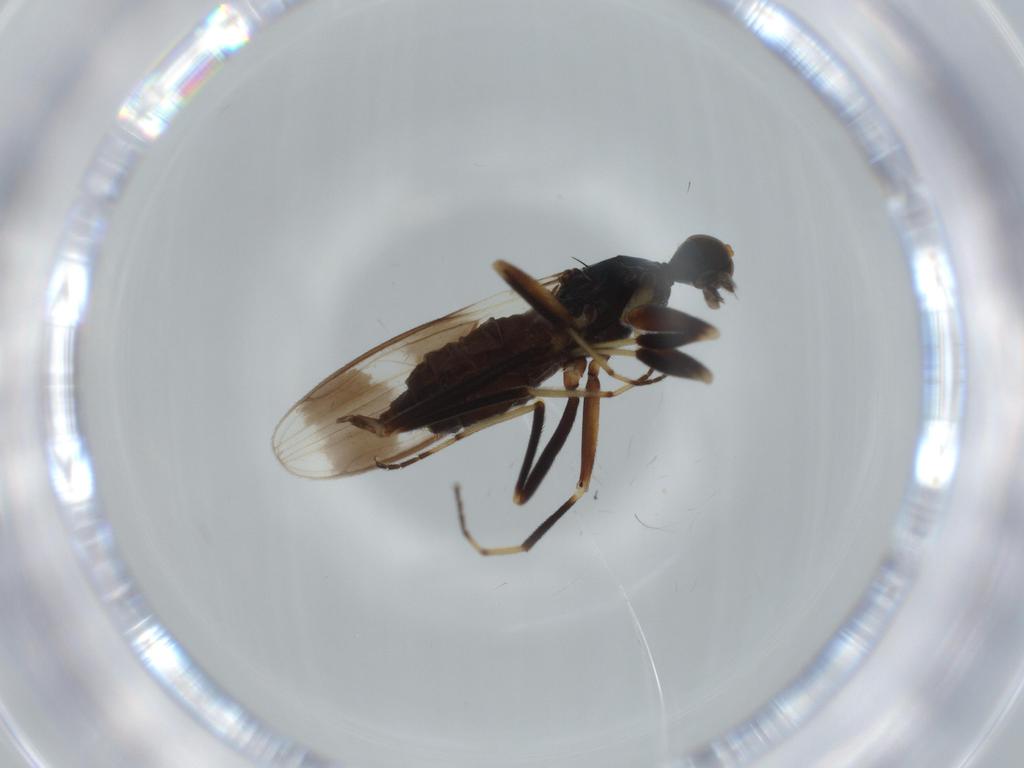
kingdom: Animalia
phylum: Arthropoda
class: Insecta
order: Diptera
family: Hybotidae
